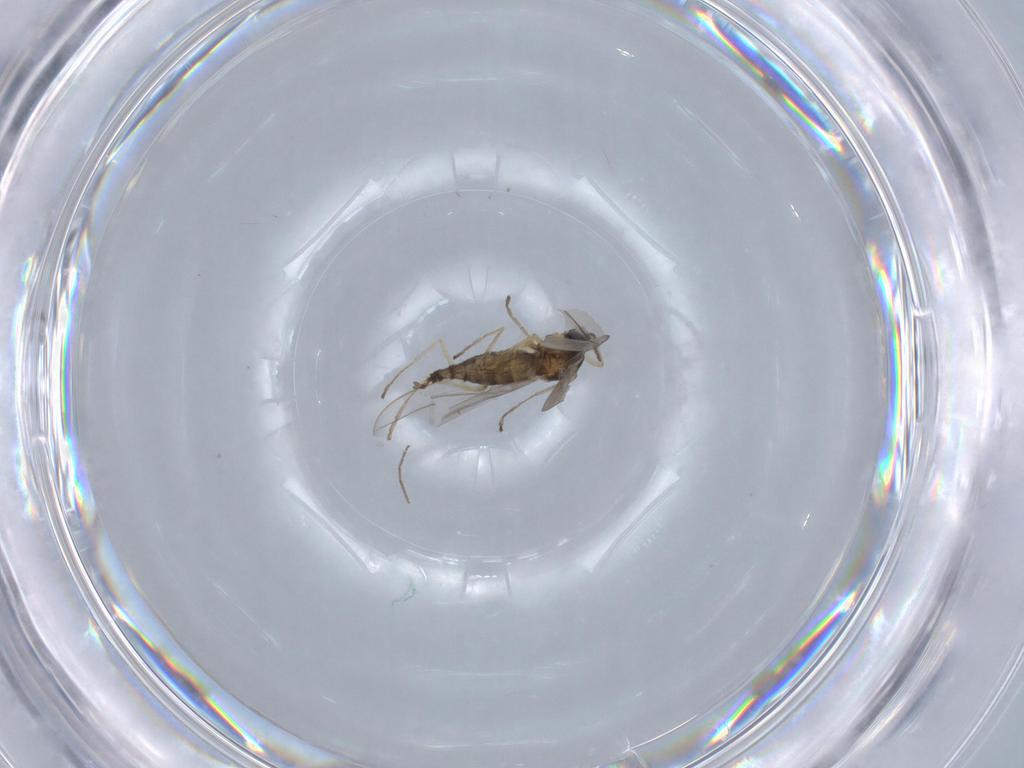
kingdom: Animalia
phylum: Arthropoda
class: Insecta
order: Diptera
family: Cecidomyiidae
